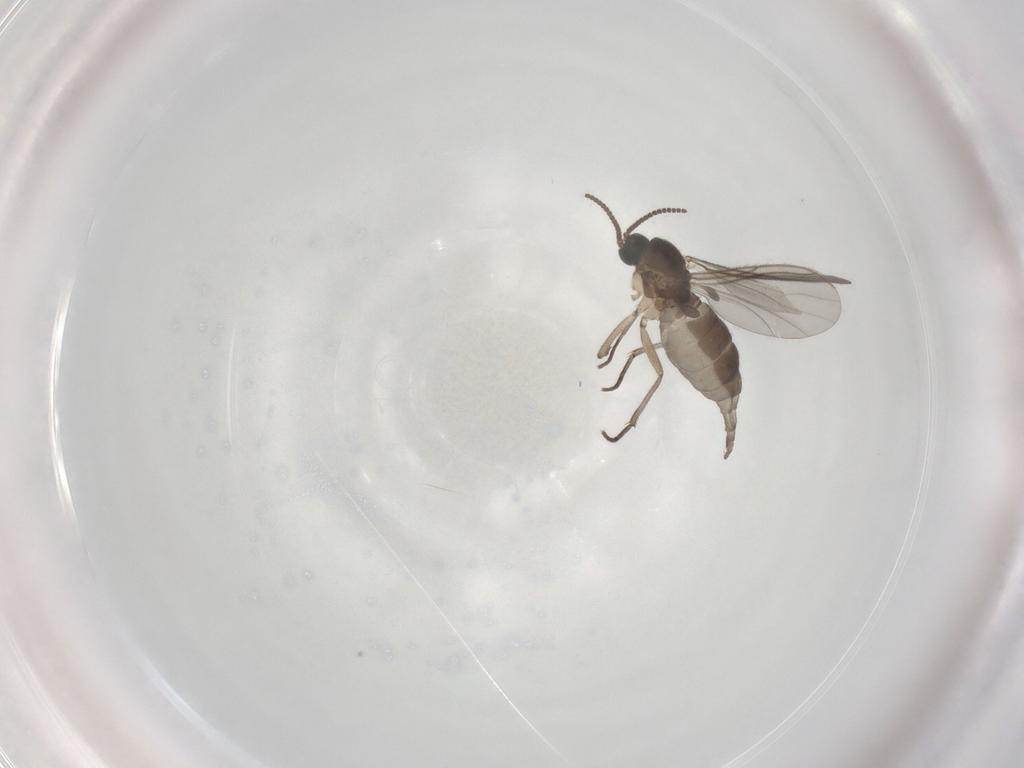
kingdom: Animalia
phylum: Arthropoda
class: Insecta
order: Diptera
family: Sciaridae
